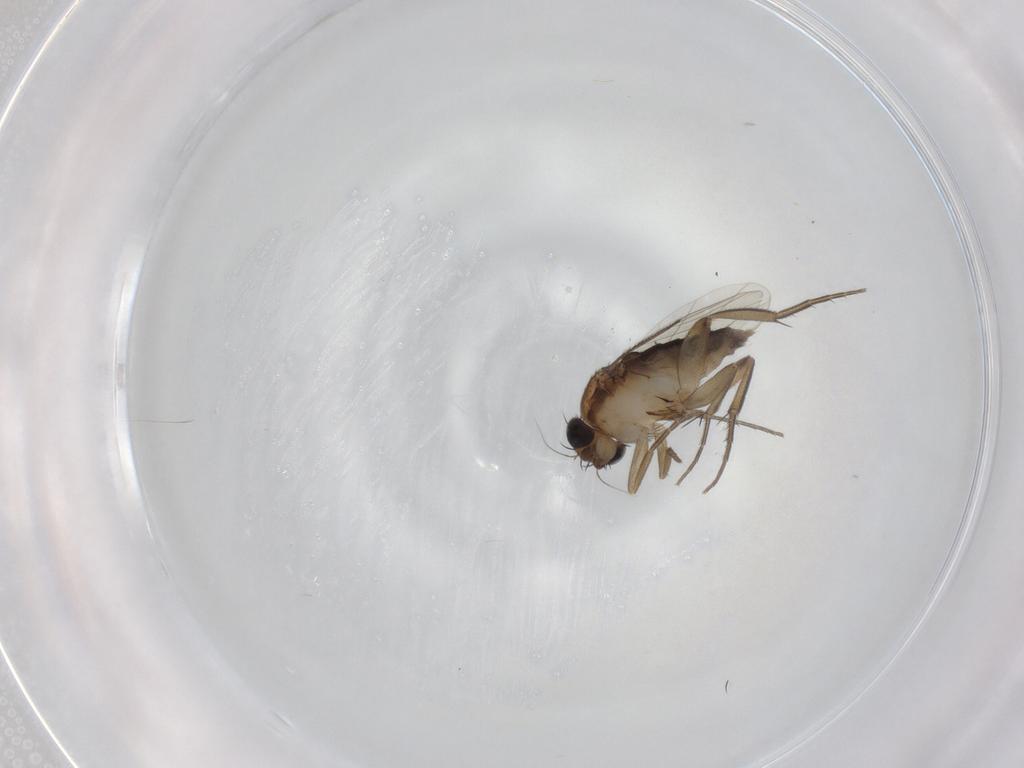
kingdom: Animalia
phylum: Arthropoda
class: Insecta
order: Diptera
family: Phoridae
